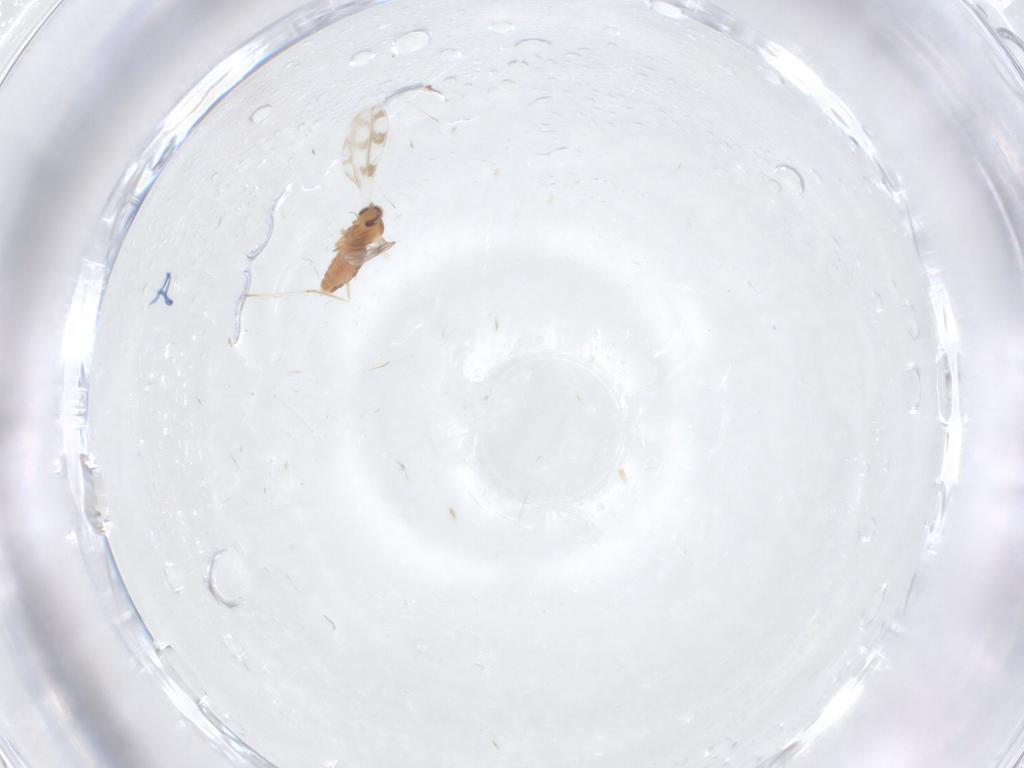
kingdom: Animalia
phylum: Arthropoda
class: Insecta
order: Diptera
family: Cecidomyiidae
